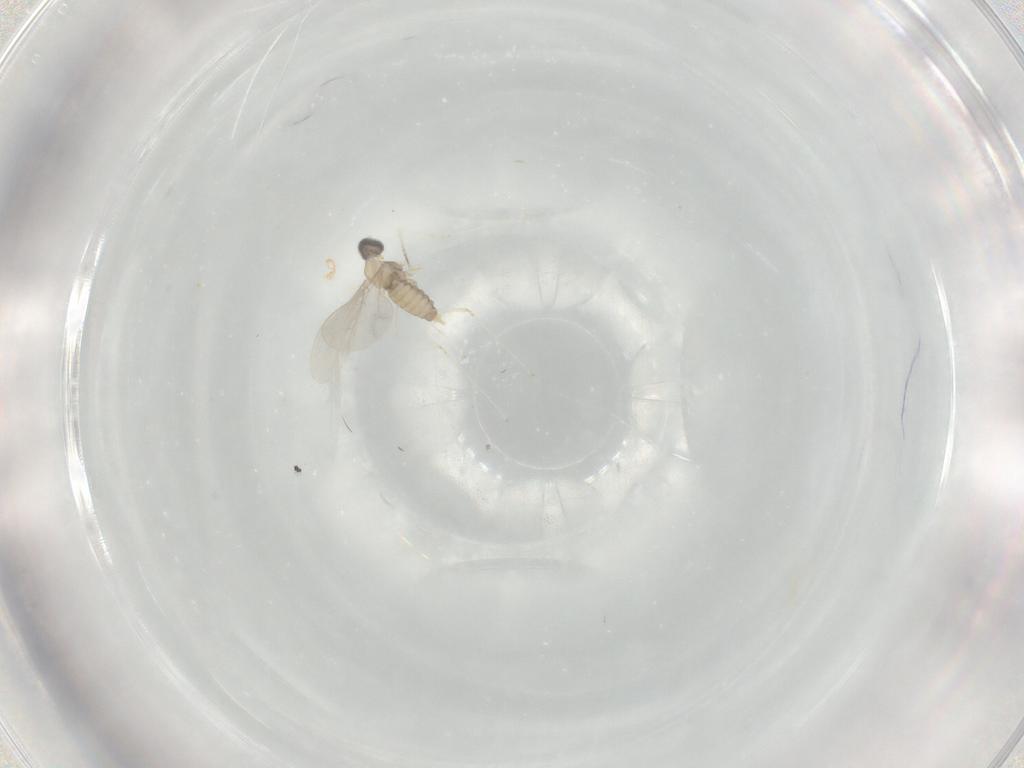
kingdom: Animalia
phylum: Arthropoda
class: Insecta
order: Diptera
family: Cecidomyiidae
